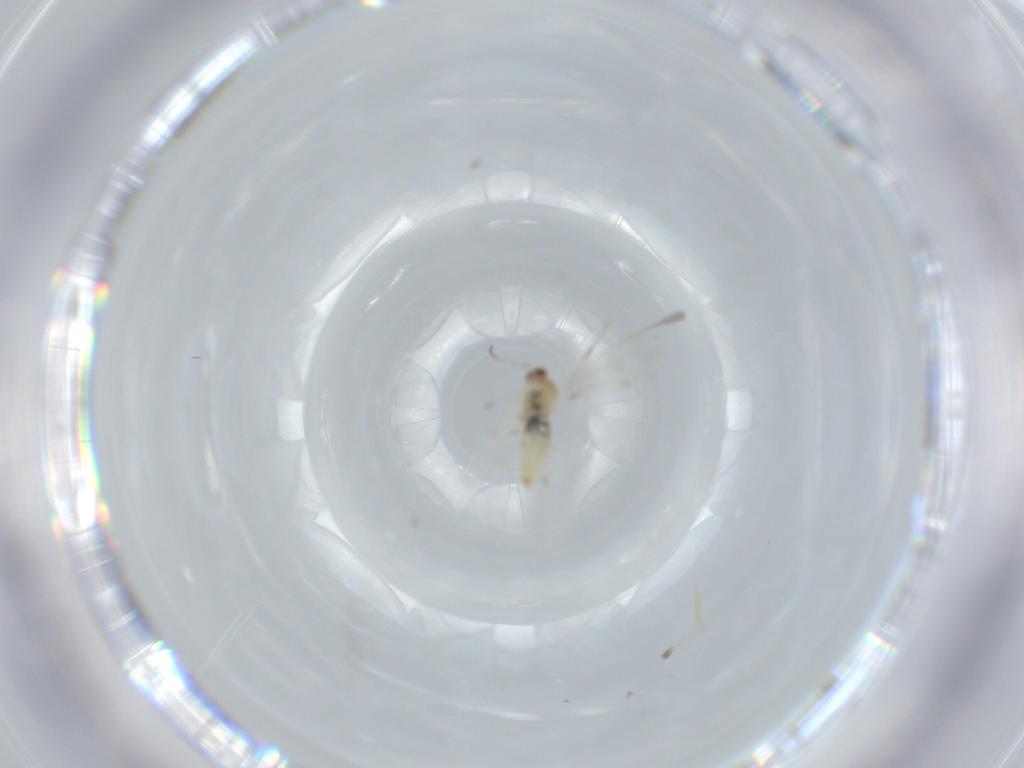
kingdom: Animalia
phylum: Arthropoda
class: Insecta
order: Diptera
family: Cecidomyiidae
